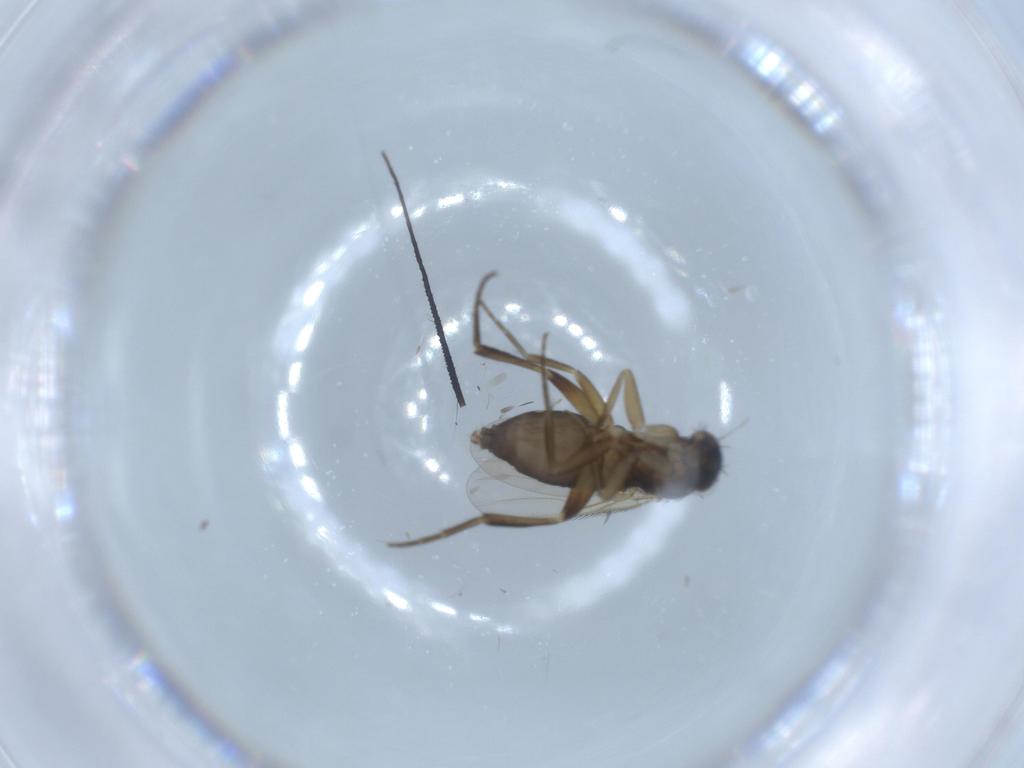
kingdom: Animalia
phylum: Arthropoda
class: Insecta
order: Diptera
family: Phoridae
